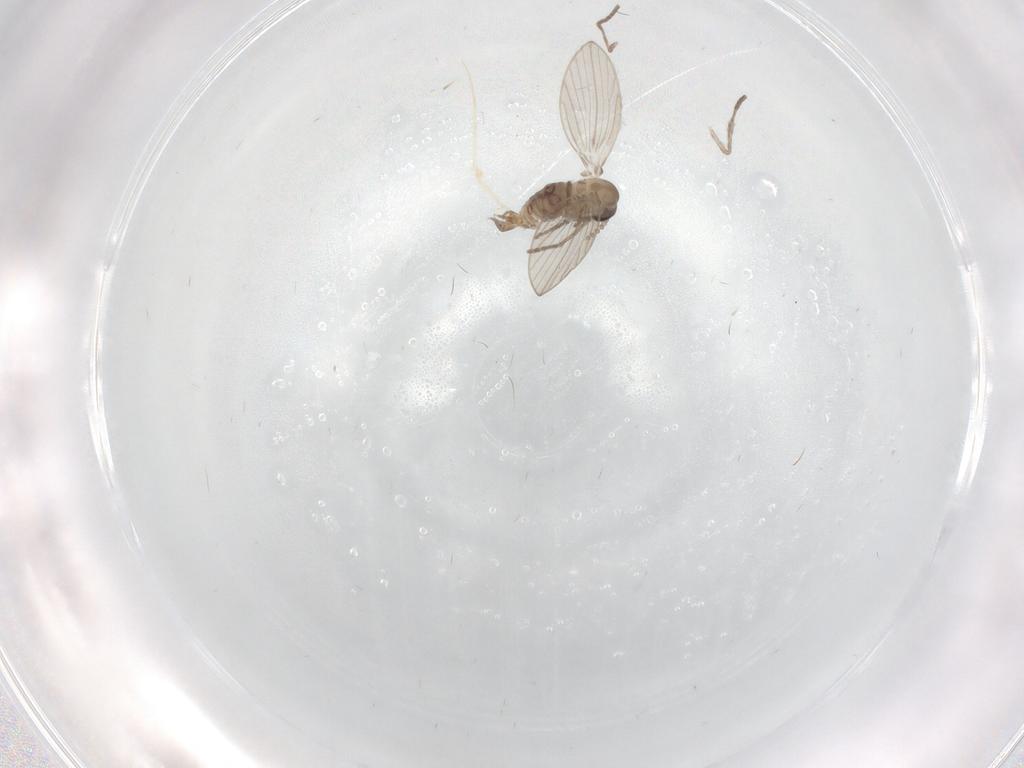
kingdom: Animalia
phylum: Arthropoda
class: Insecta
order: Diptera
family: Psychodidae
